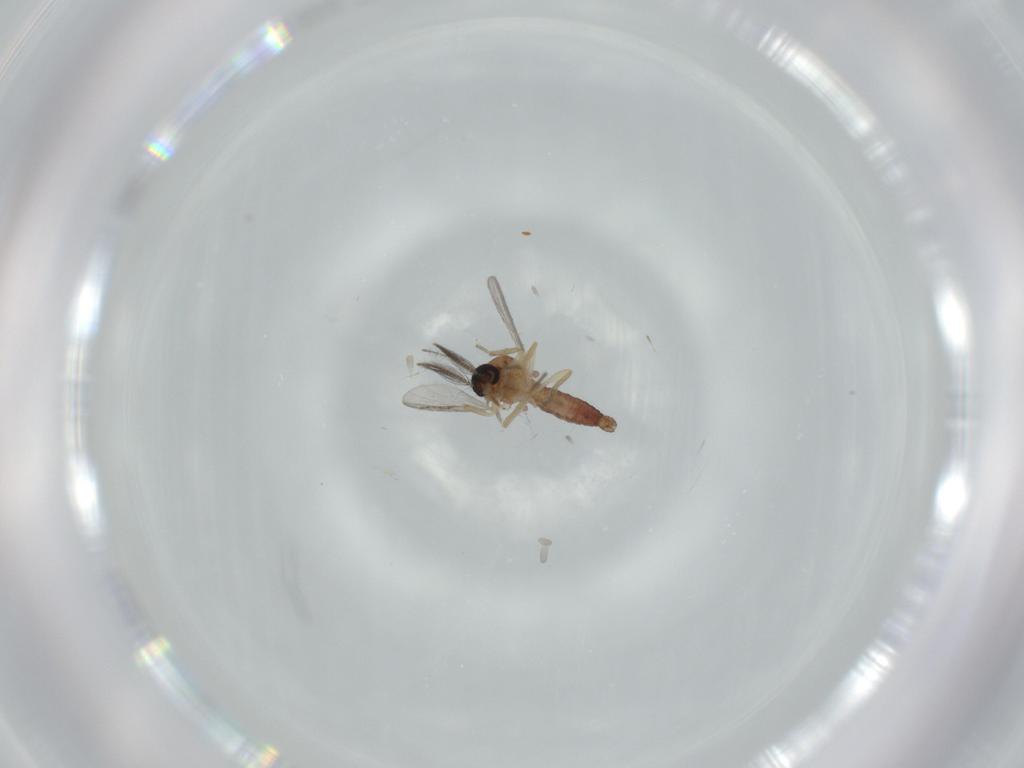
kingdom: Animalia
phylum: Arthropoda
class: Insecta
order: Diptera
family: Ceratopogonidae
